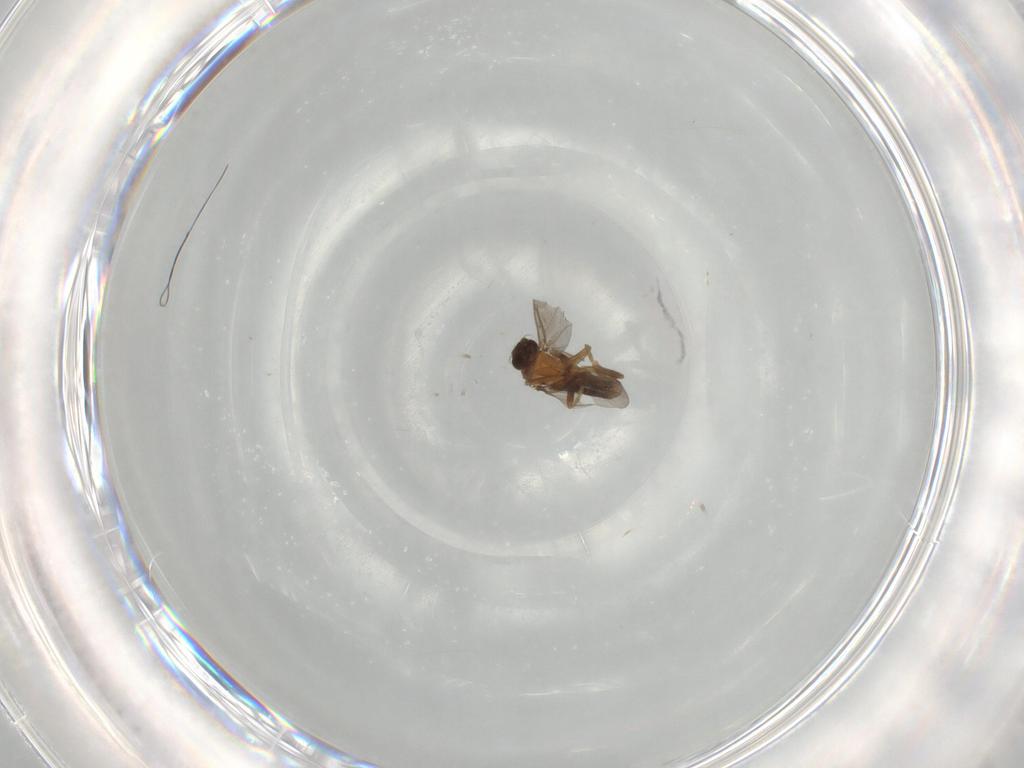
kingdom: Animalia
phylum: Arthropoda
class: Insecta
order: Diptera
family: Phoridae
